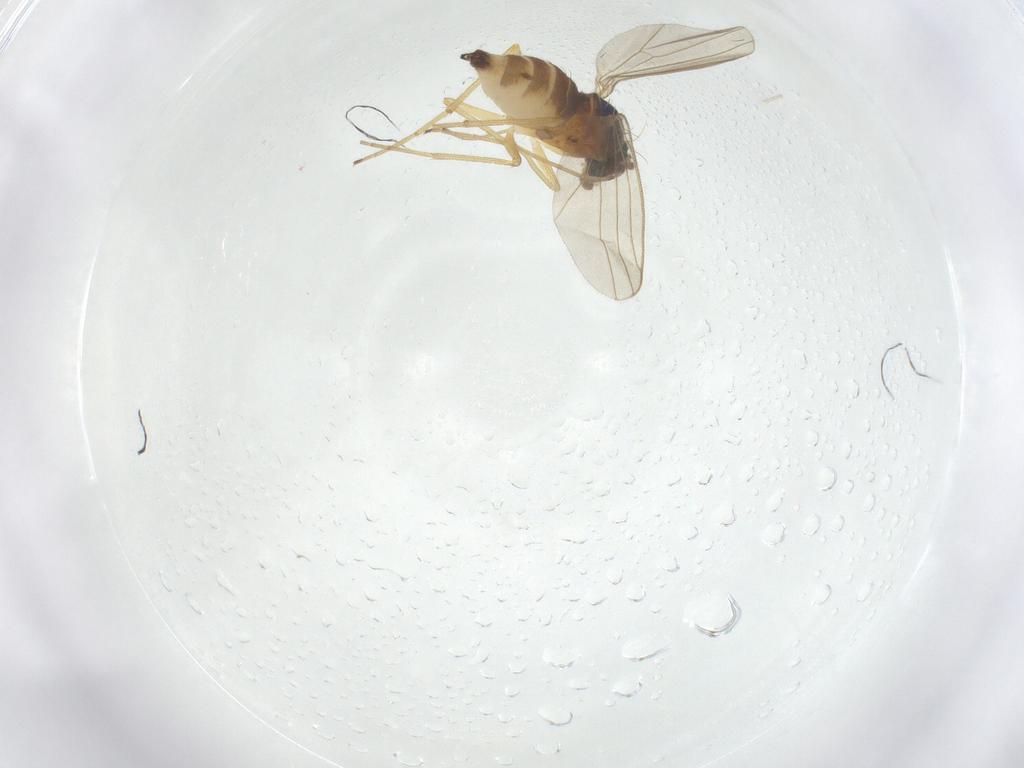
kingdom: Animalia
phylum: Arthropoda
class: Insecta
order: Diptera
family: Dolichopodidae
